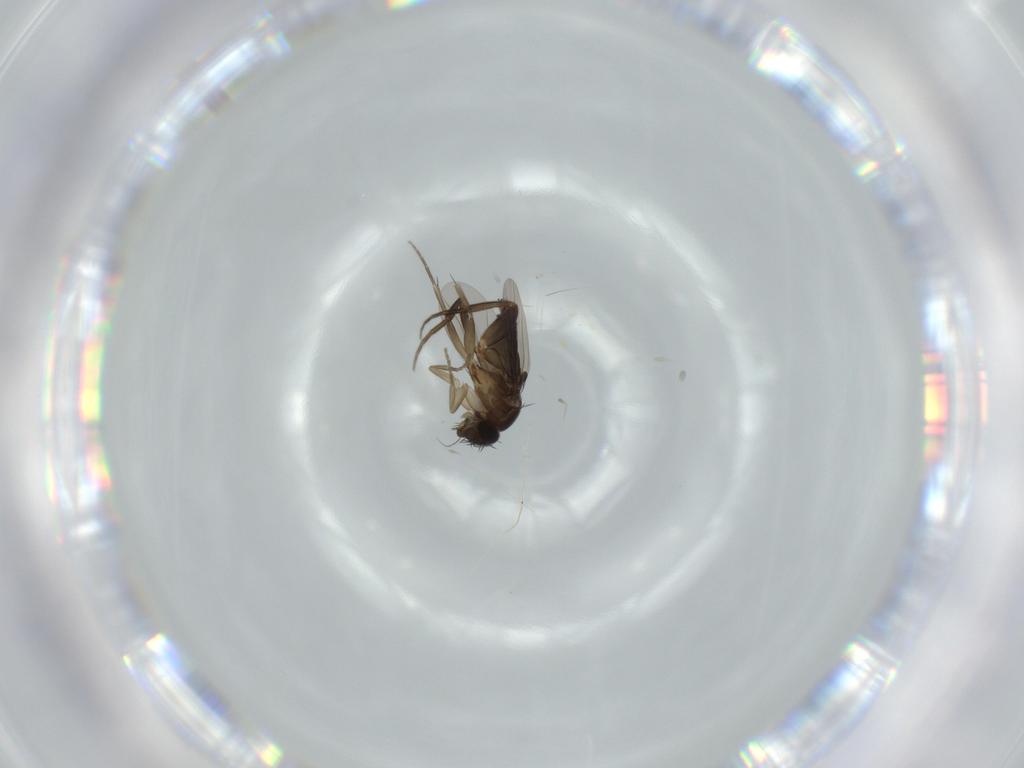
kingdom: Animalia
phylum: Arthropoda
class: Insecta
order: Diptera
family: Phoridae
